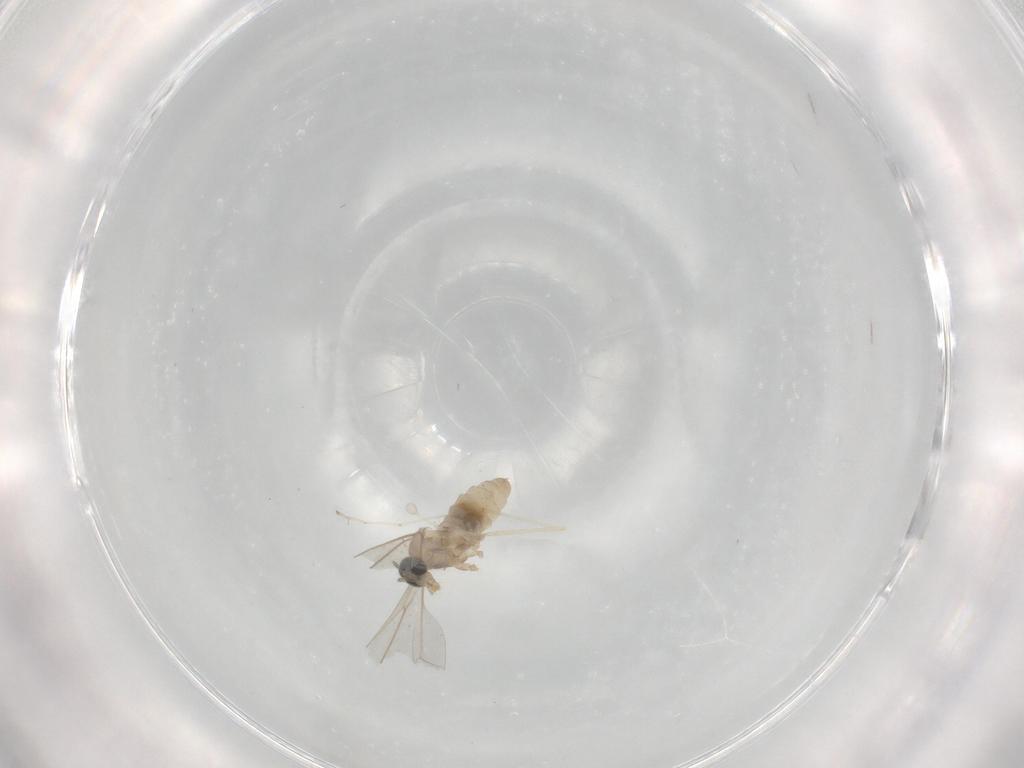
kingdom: Animalia
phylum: Arthropoda
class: Insecta
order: Diptera
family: Cecidomyiidae
